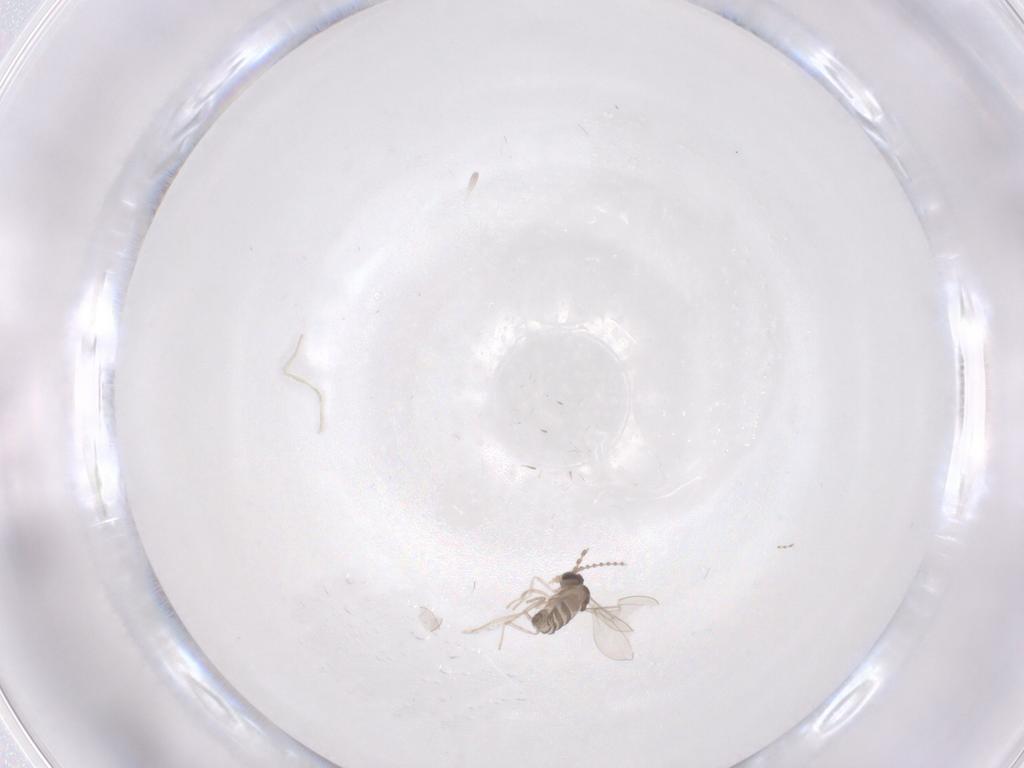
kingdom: Animalia
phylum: Arthropoda
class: Insecta
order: Diptera
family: Cecidomyiidae
